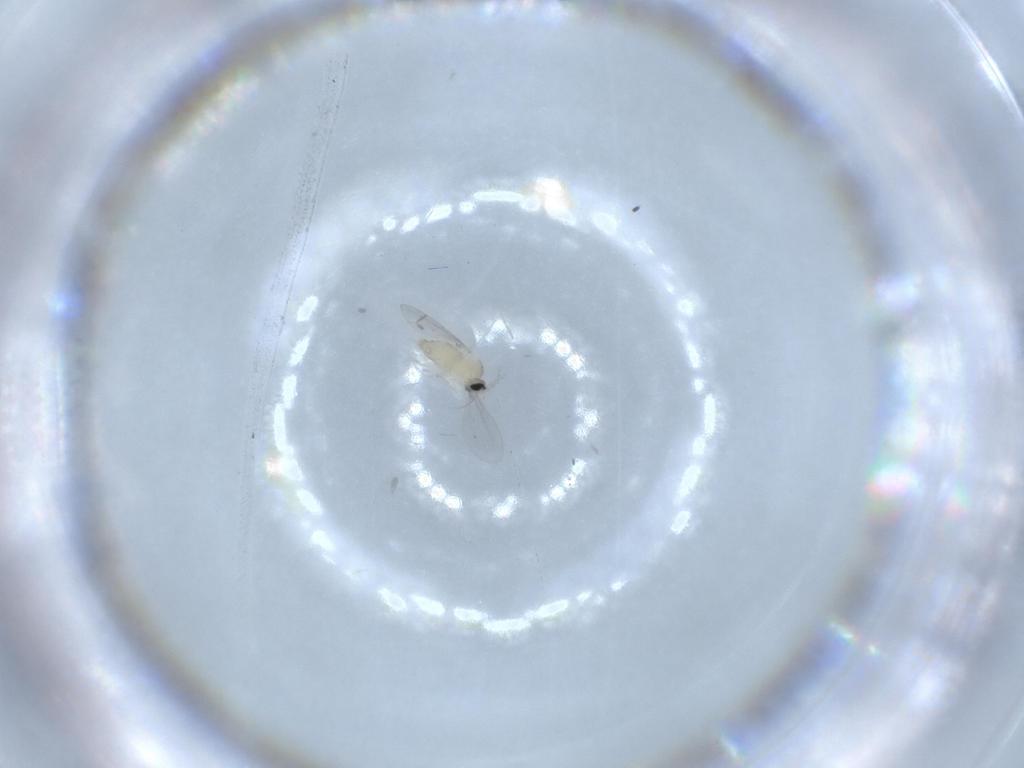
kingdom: Animalia
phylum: Arthropoda
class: Insecta
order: Diptera
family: Cecidomyiidae
